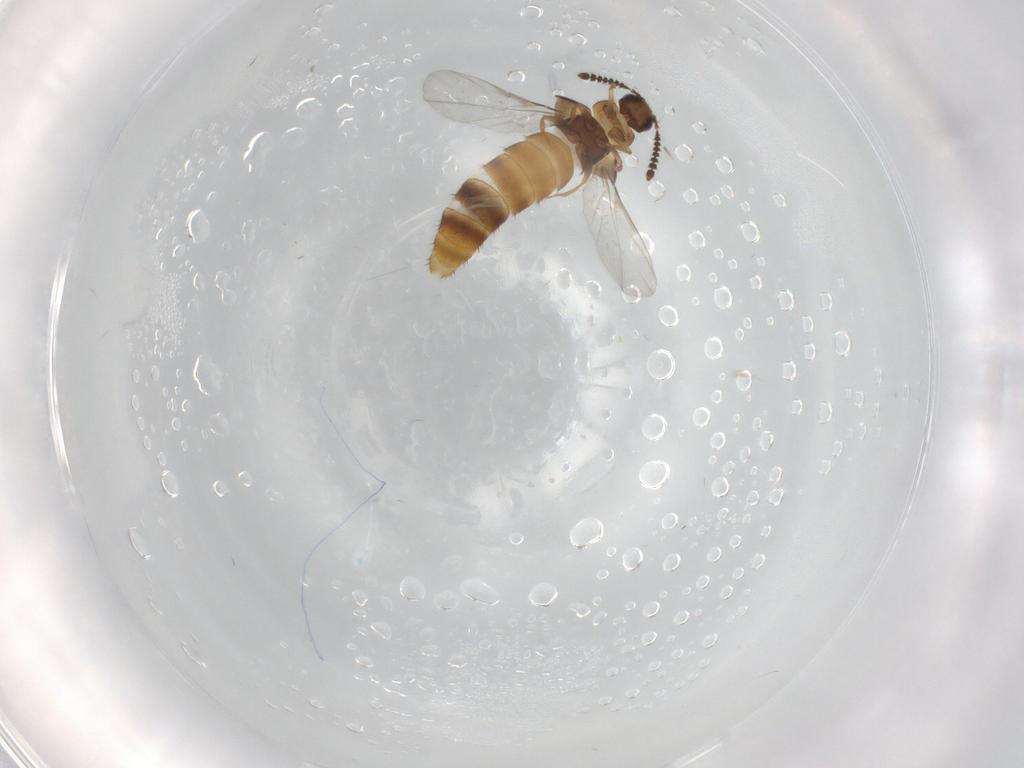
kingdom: Animalia
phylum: Arthropoda
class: Insecta
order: Coleoptera
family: Staphylinidae
